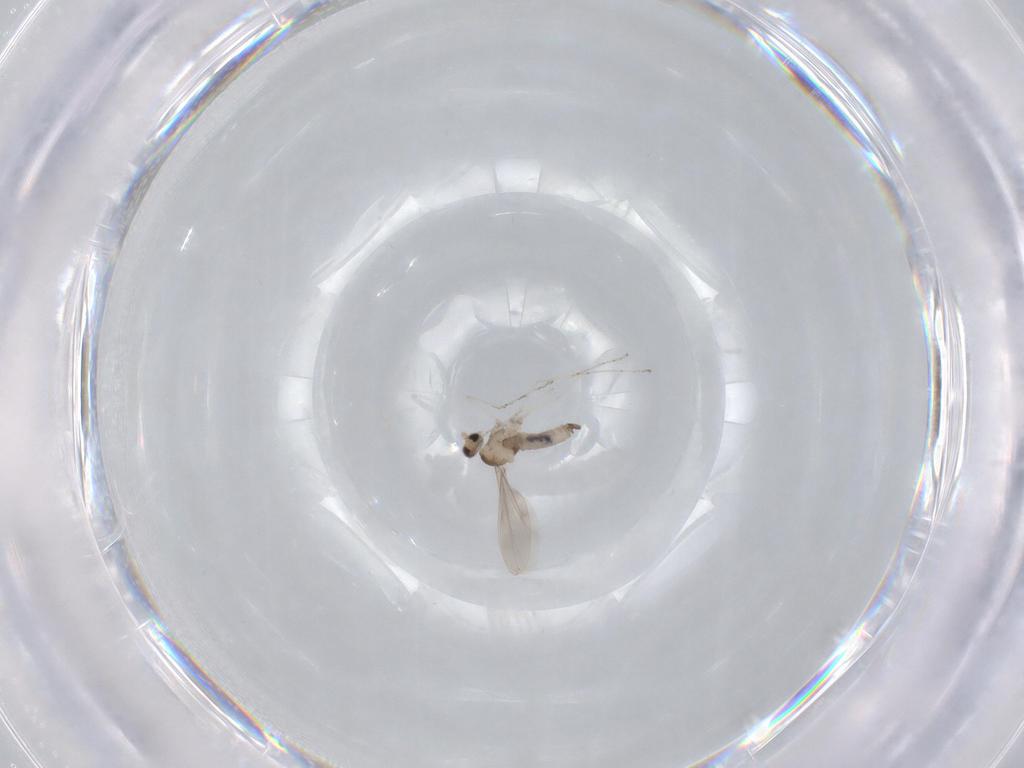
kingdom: Animalia
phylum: Arthropoda
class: Insecta
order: Diptera
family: Cecidomyiidae
